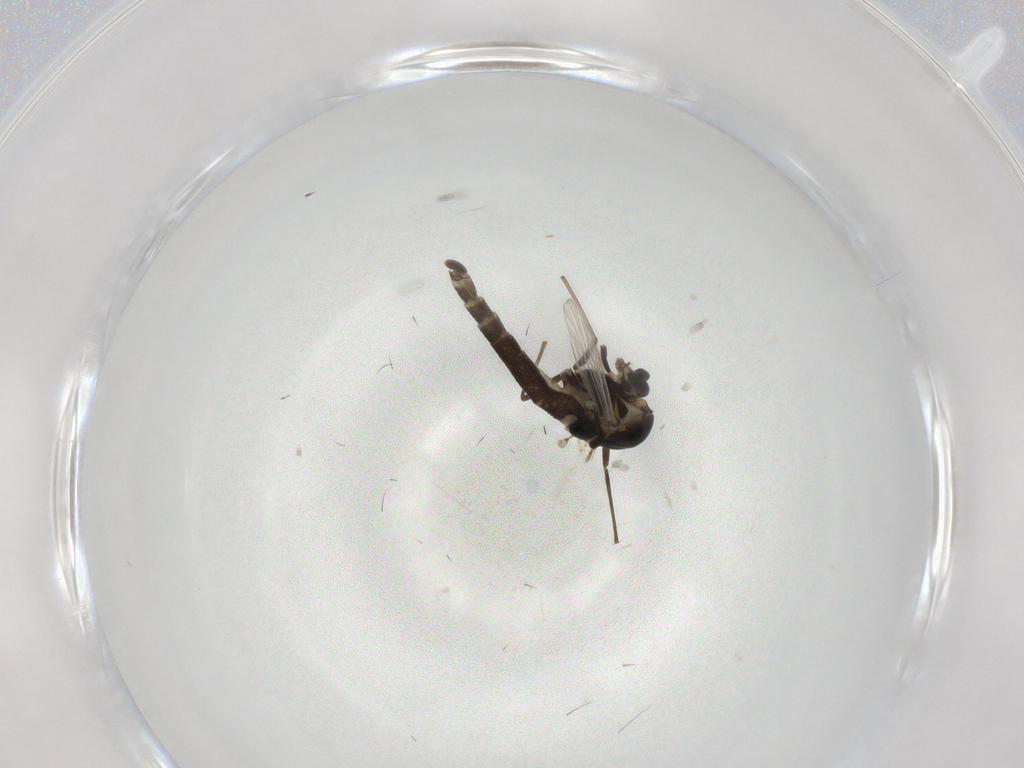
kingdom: Animalia
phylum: Arthropoda
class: Insecta
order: Diptera
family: Chironomidae
